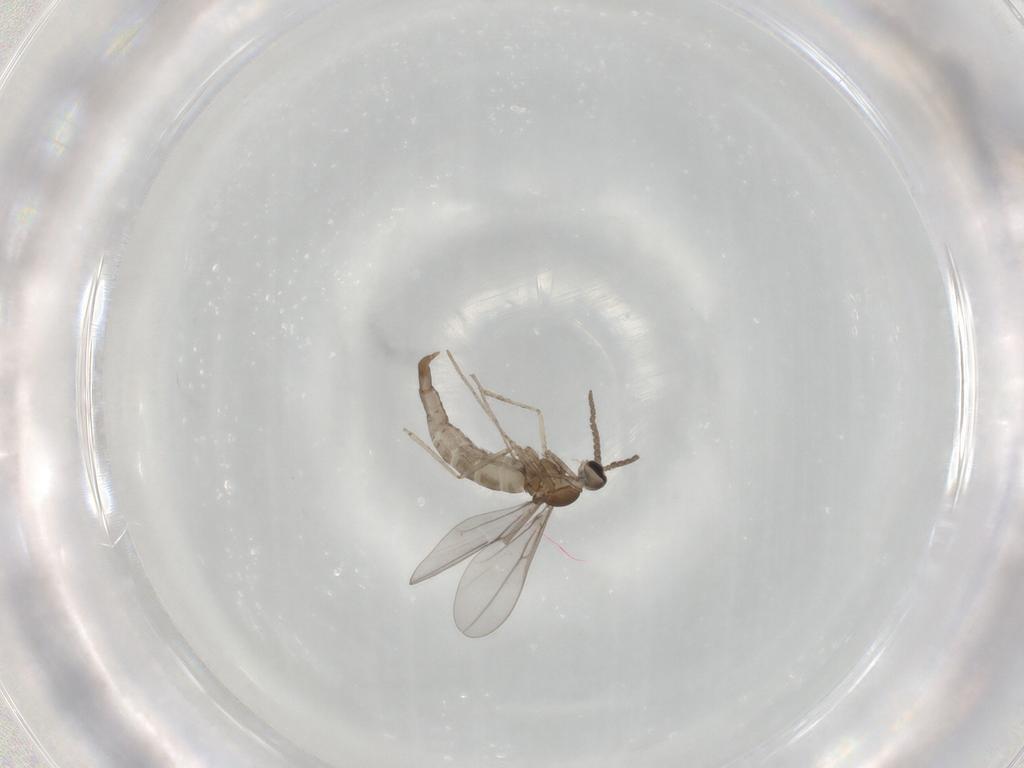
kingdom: Animalia
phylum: Arthropoda
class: Insecta
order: Diptera
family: Cecidomyiidae
